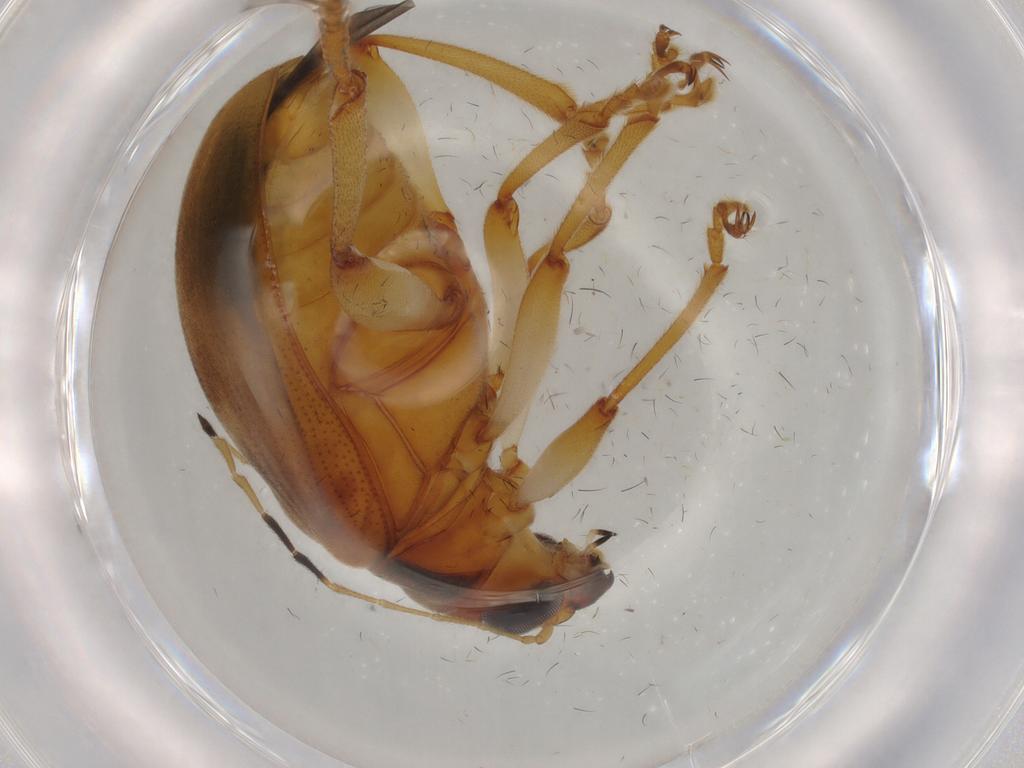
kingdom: Animalia
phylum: Arthropoda
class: Insecta
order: Coleoptera
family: Chrysomelidae
